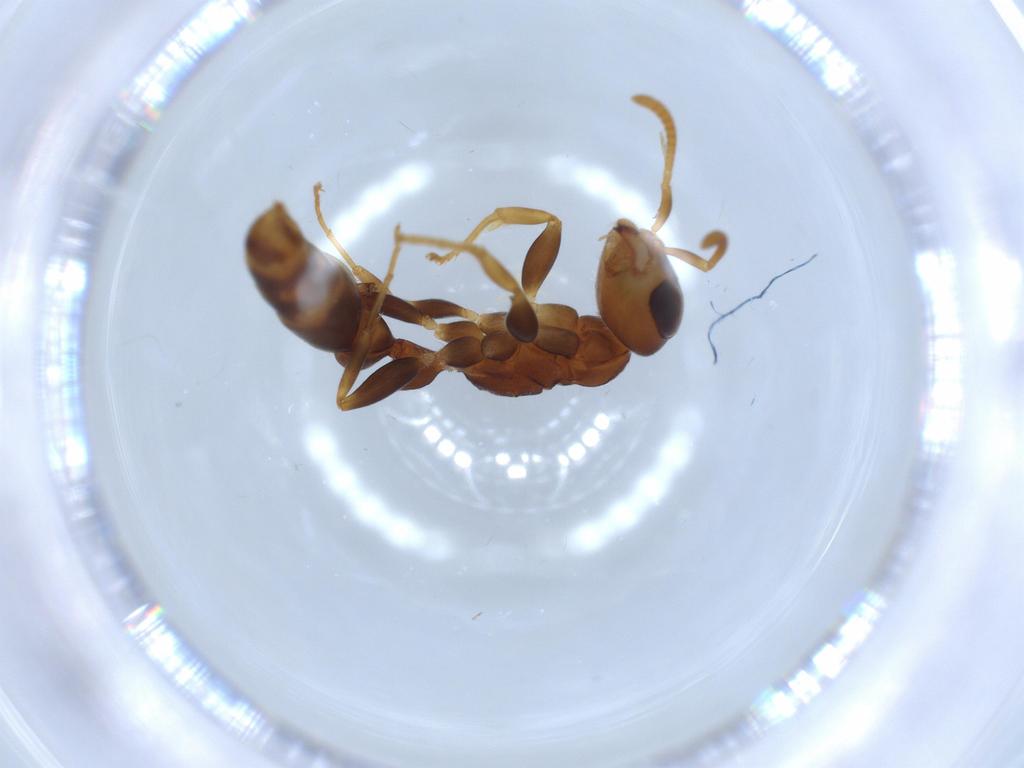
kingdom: Animalia
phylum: Arthropoda
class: Insecta
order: Hymenoptera
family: Formicidae
